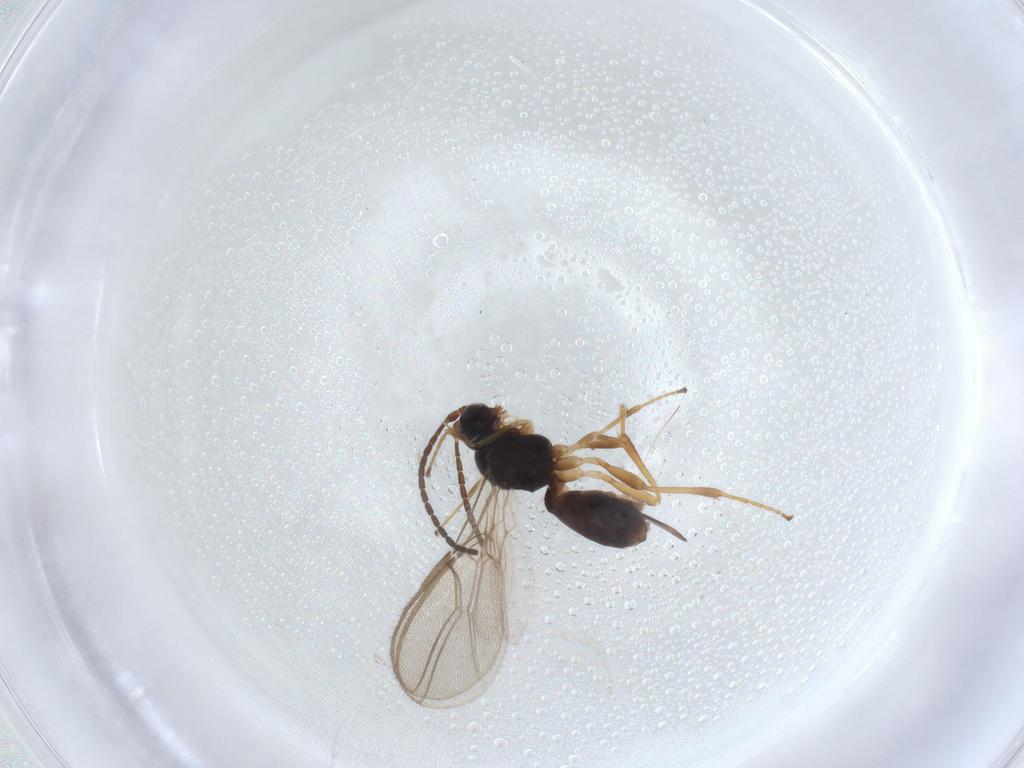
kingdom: Animalia
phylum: Arthropoda
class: Insecta
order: Hymenoptera
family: Braconidae
